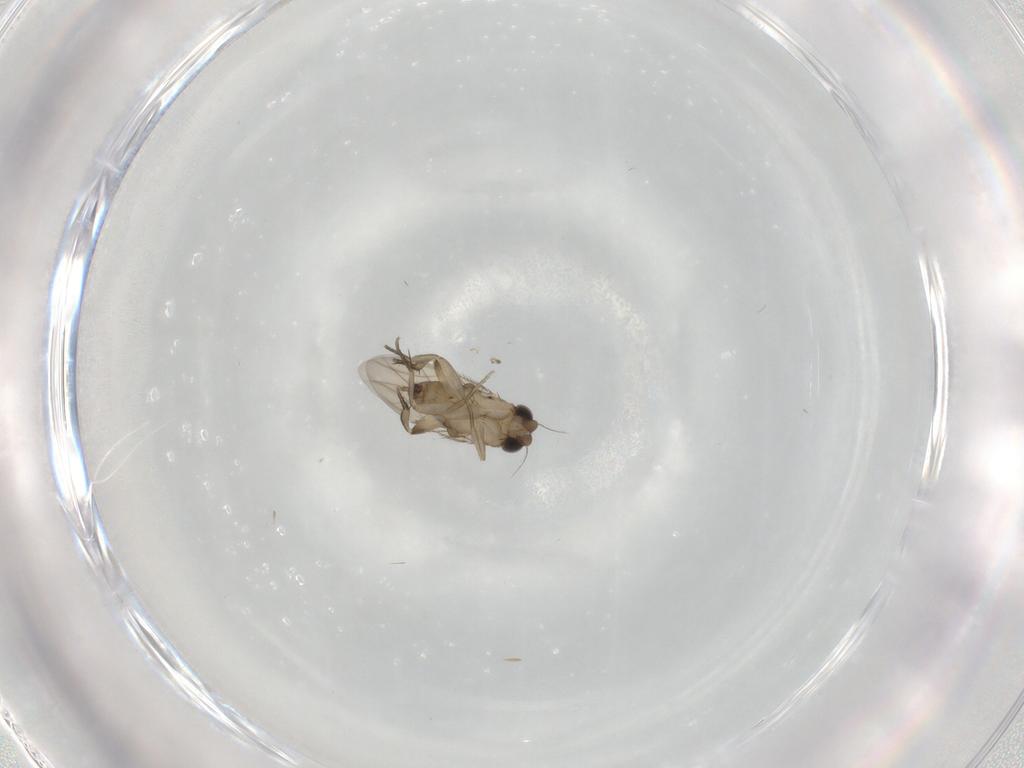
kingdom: Animalia
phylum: Arthropoda
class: Insecta
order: Diptera
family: Phoridae
